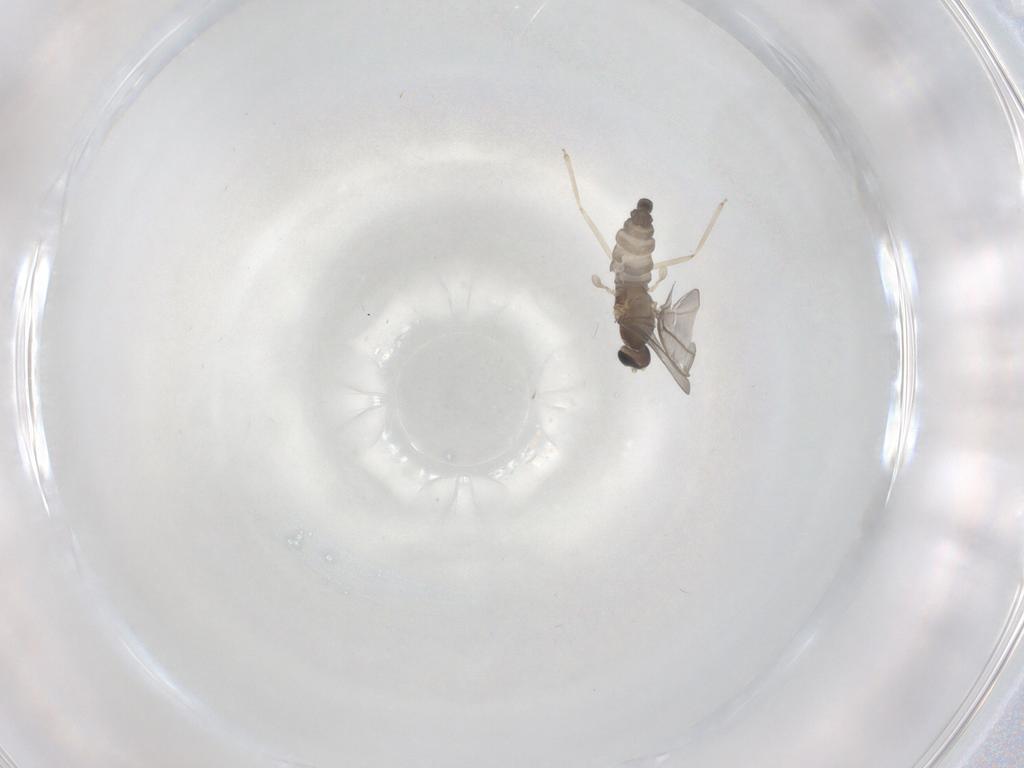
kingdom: Animalia
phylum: Arthropoda
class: Insecta
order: Diptera
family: Cecidomyiidae
